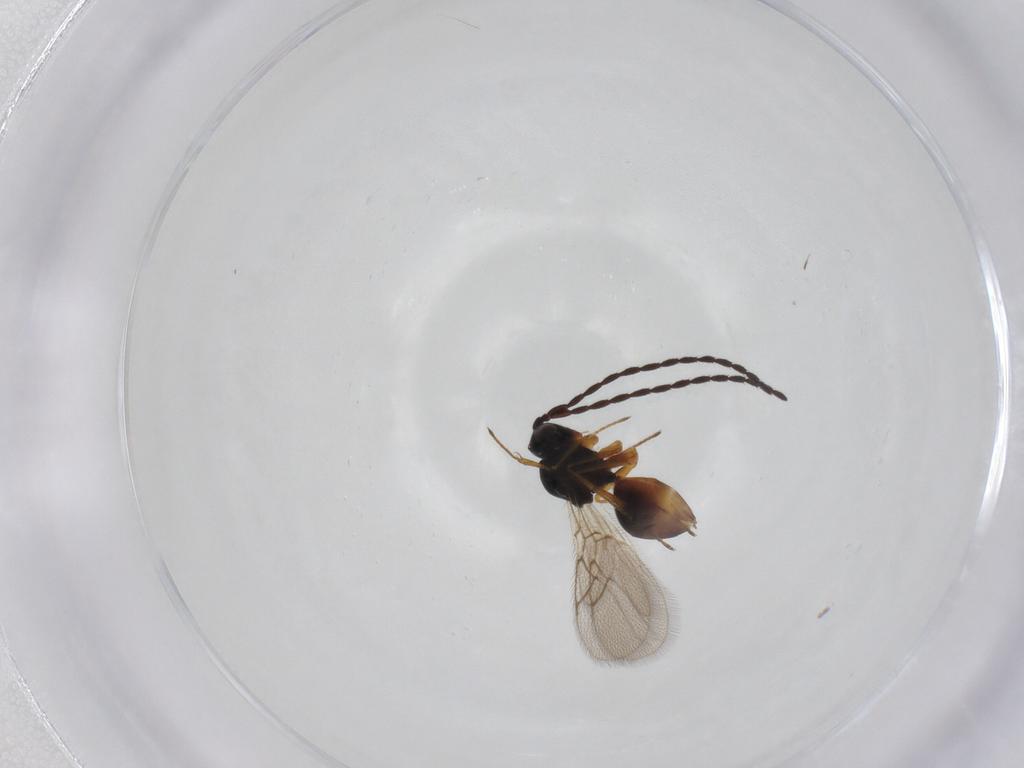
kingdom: Animalia
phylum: Arthropoda
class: Insecta
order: Hymenoptera
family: Figitidae
